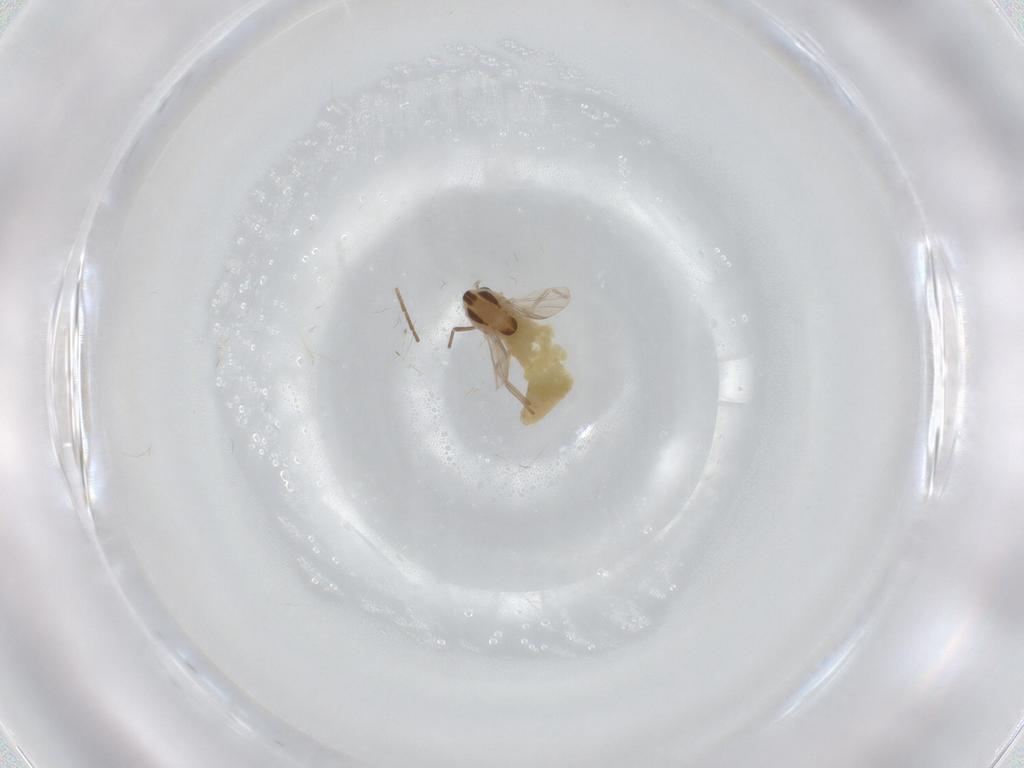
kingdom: Animalia
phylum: Arthropoda
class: Insecta
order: Diptera
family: Chironomidae
